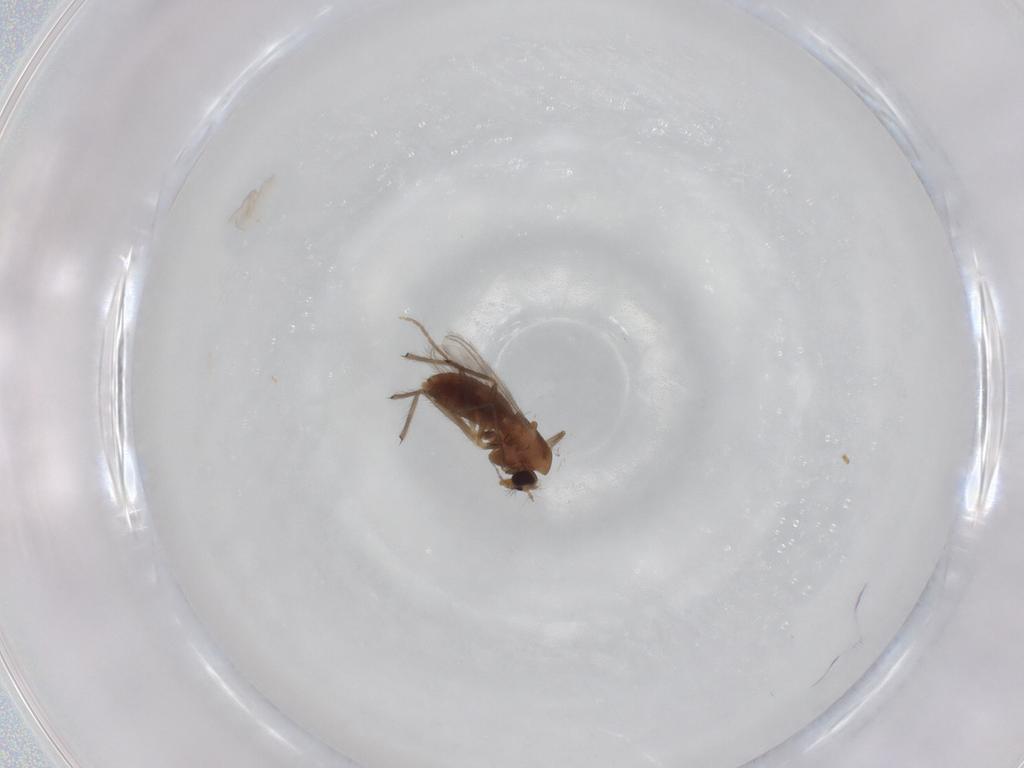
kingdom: Animalia
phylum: Arthropoda
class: Insecta
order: Diptera
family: Chironomidae
